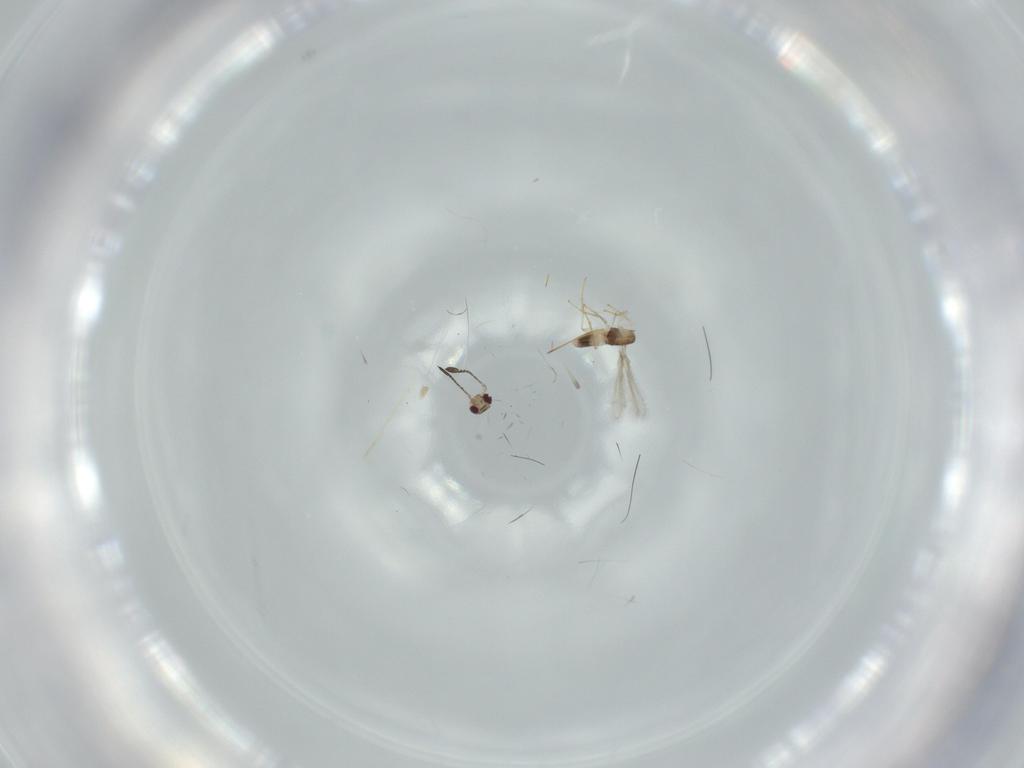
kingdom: Animalia
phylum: Arthropoda
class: Insecta
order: Hymenoptera
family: Mymaridae
